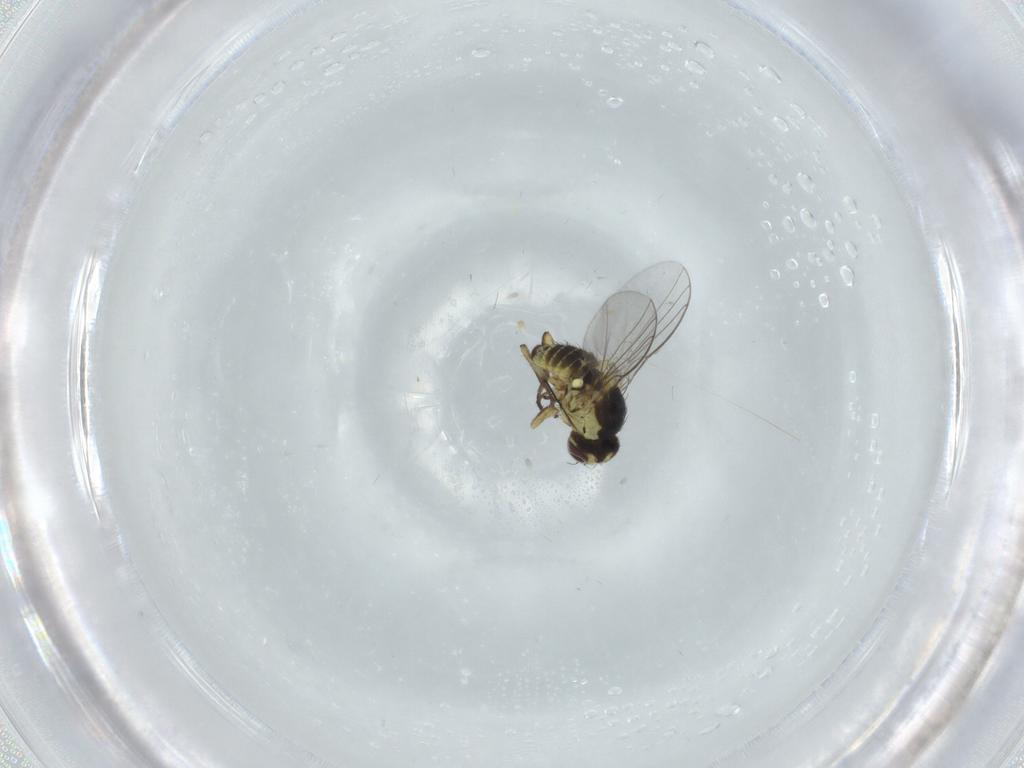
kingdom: Animalia
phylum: Arthropoda
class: Insecta
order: Diptera
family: Agromyzidae
